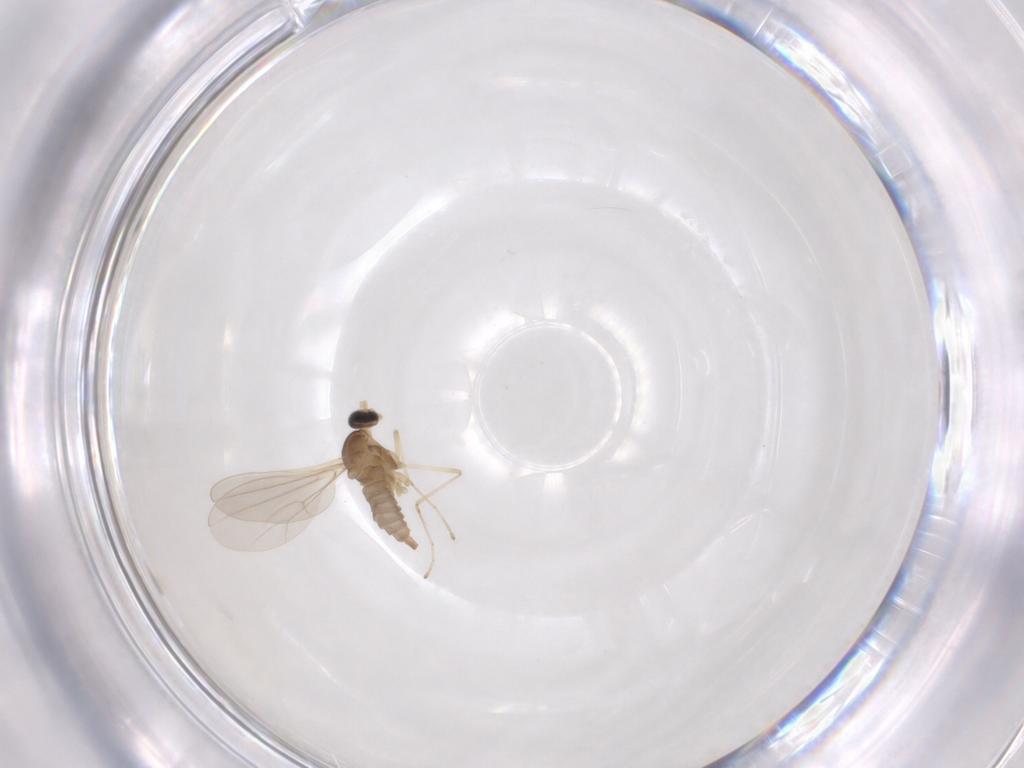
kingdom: Animalia
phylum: Arthropoda
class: Insecta
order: Diptera
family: Cecidomyiidae
